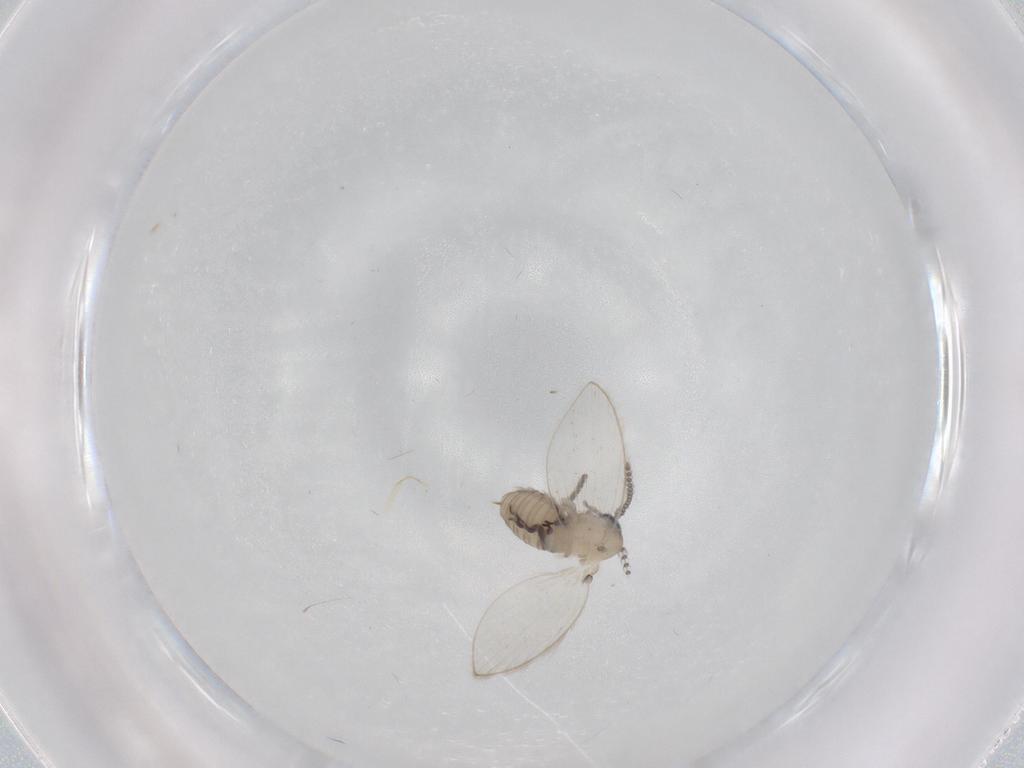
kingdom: Animalia
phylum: Arthropoda
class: Insecta
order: Diptera
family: Psychodidae
